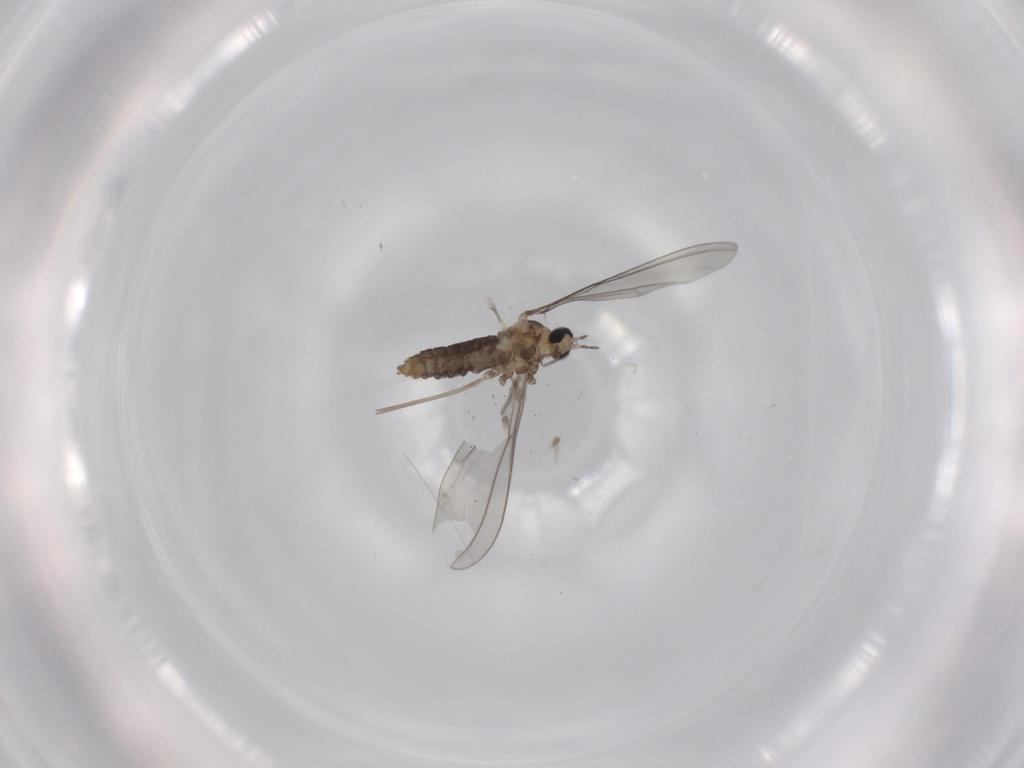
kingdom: Animalia
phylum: Arthropoda
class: Insecta
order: Diptera
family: Cecidomyiidae
